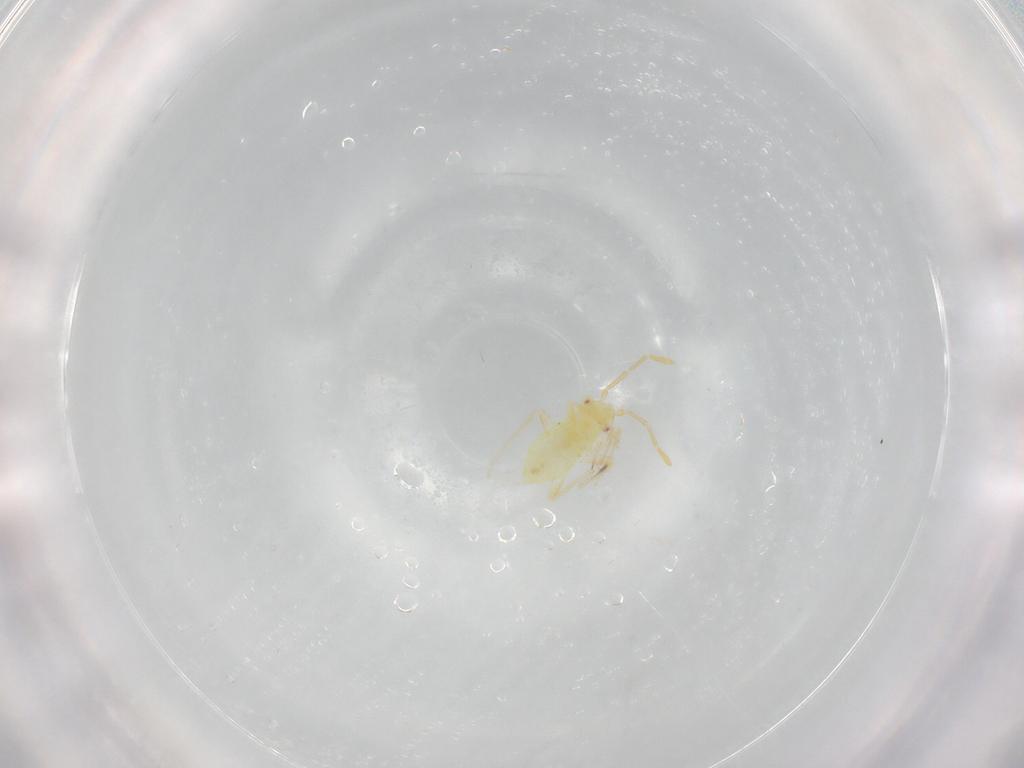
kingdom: Animalia
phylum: Arthropoda
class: Insecta
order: Hemiptera
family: Miridae
